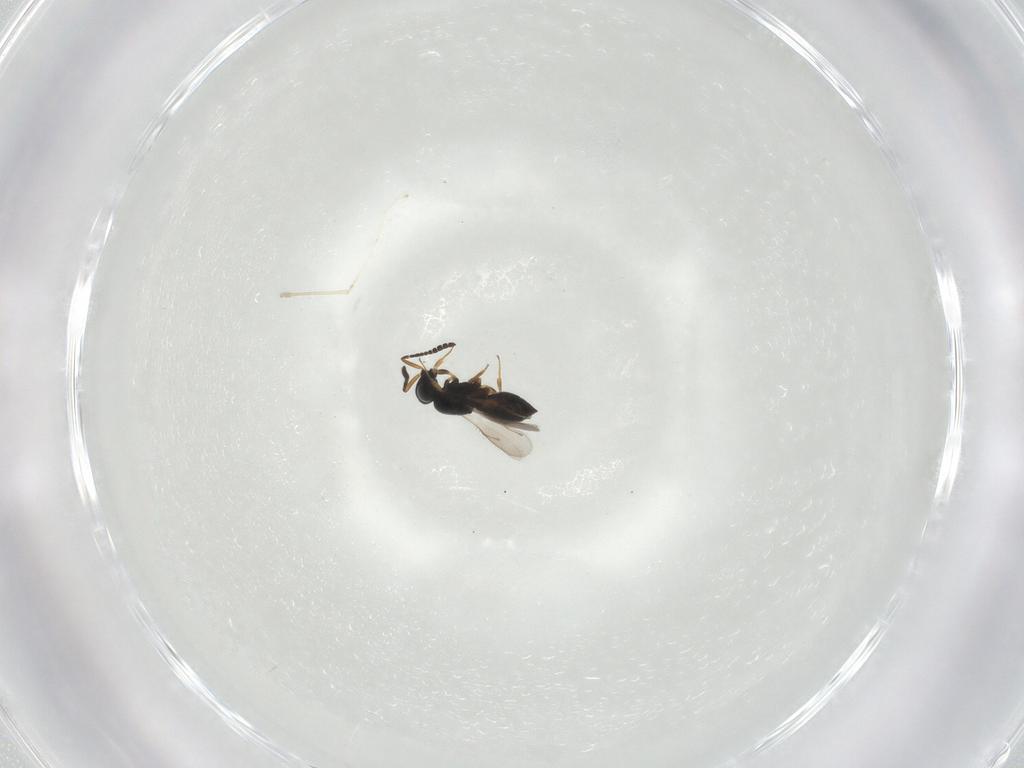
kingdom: Animalia
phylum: Arthropoda
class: Insecta
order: Hymenoptera
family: Scelionidae
